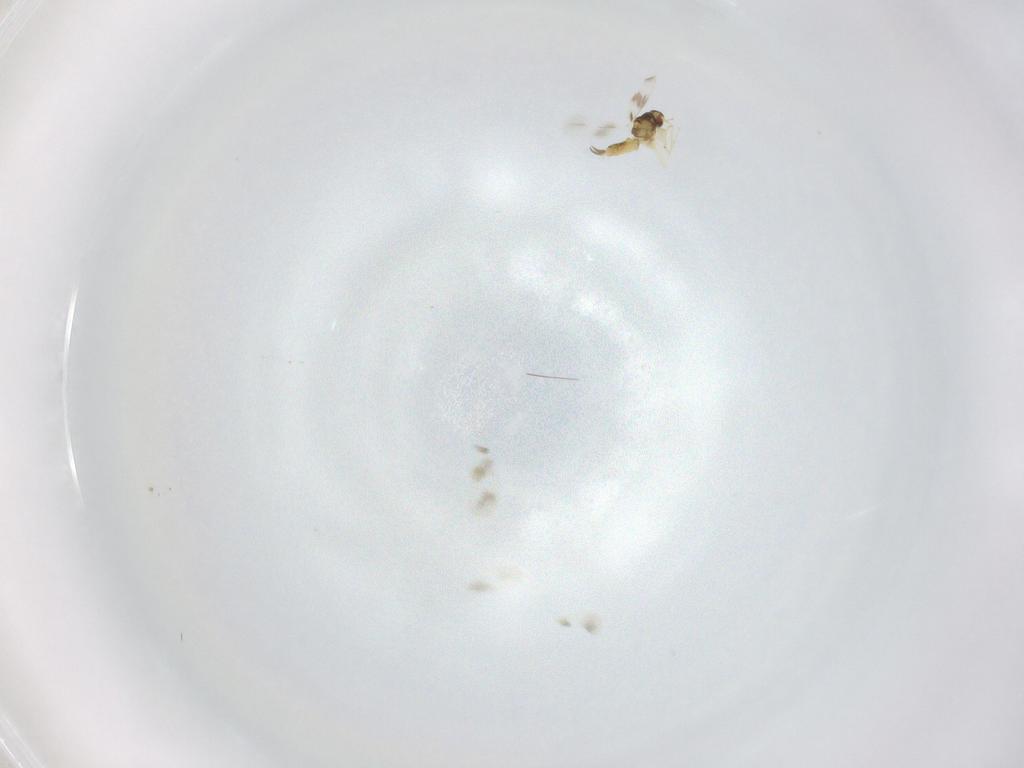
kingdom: Animalia
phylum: Arthropoda
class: Insecta
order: Hemiptera
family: Aleyrodidae
